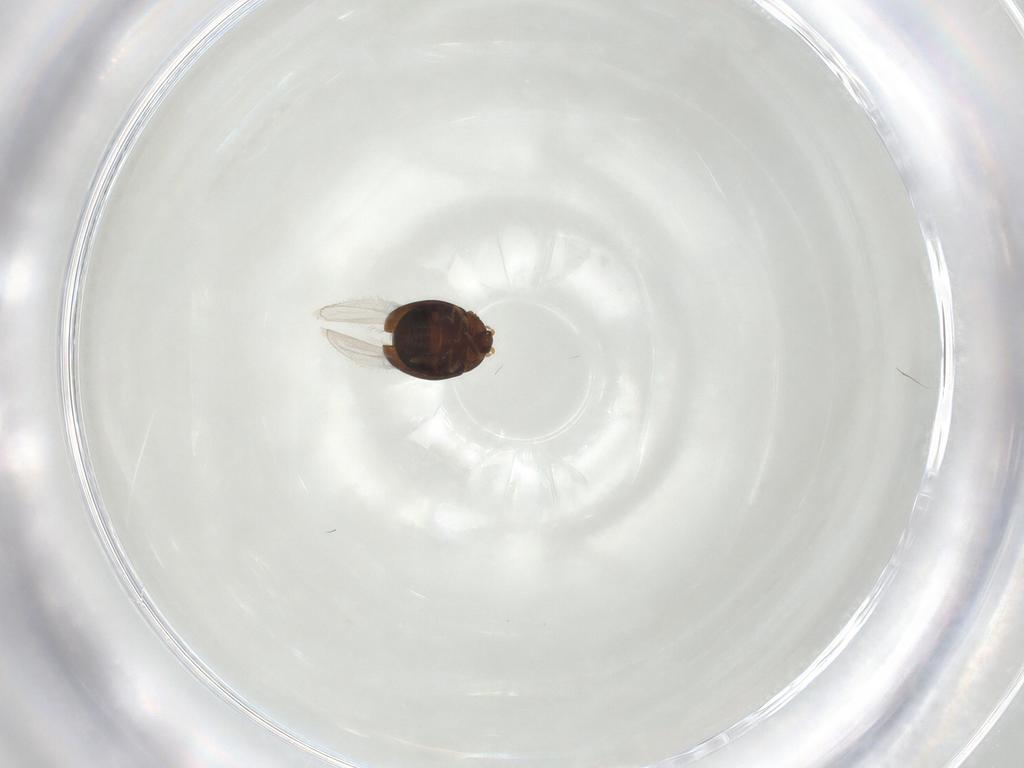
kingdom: Animalia
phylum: Arthropoda
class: Insecta
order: Coleoptera
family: Corylophidae
